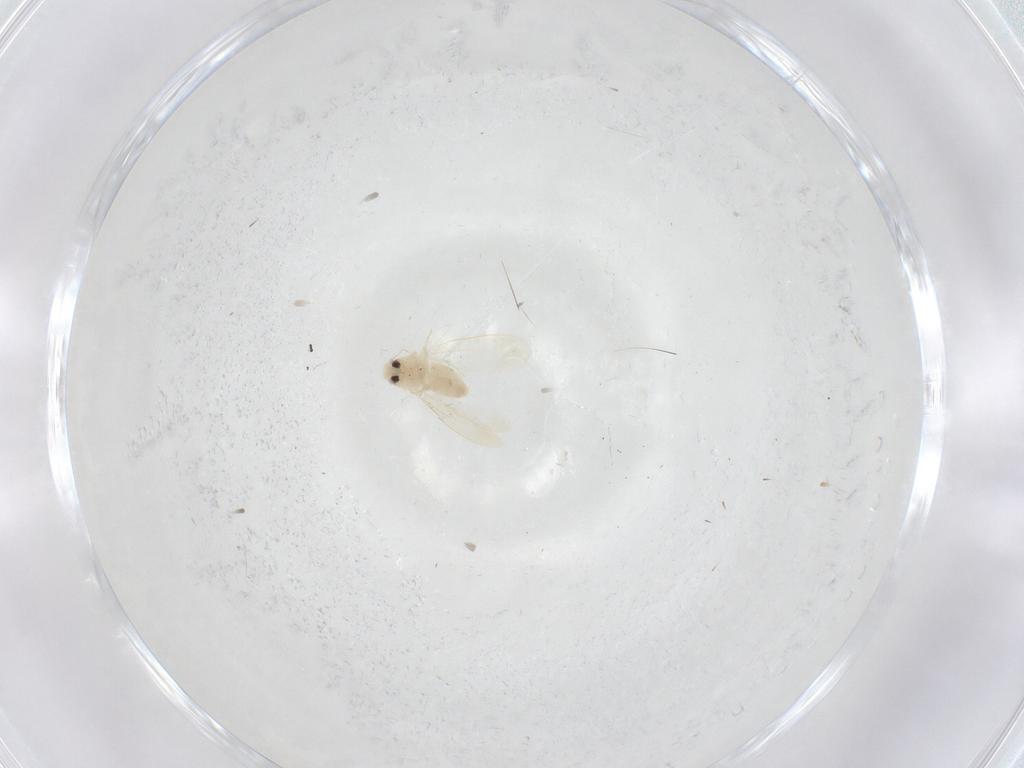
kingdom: Animalia
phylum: Arthropoda
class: Insecta
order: Hemiptera
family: Aleyrodidae
